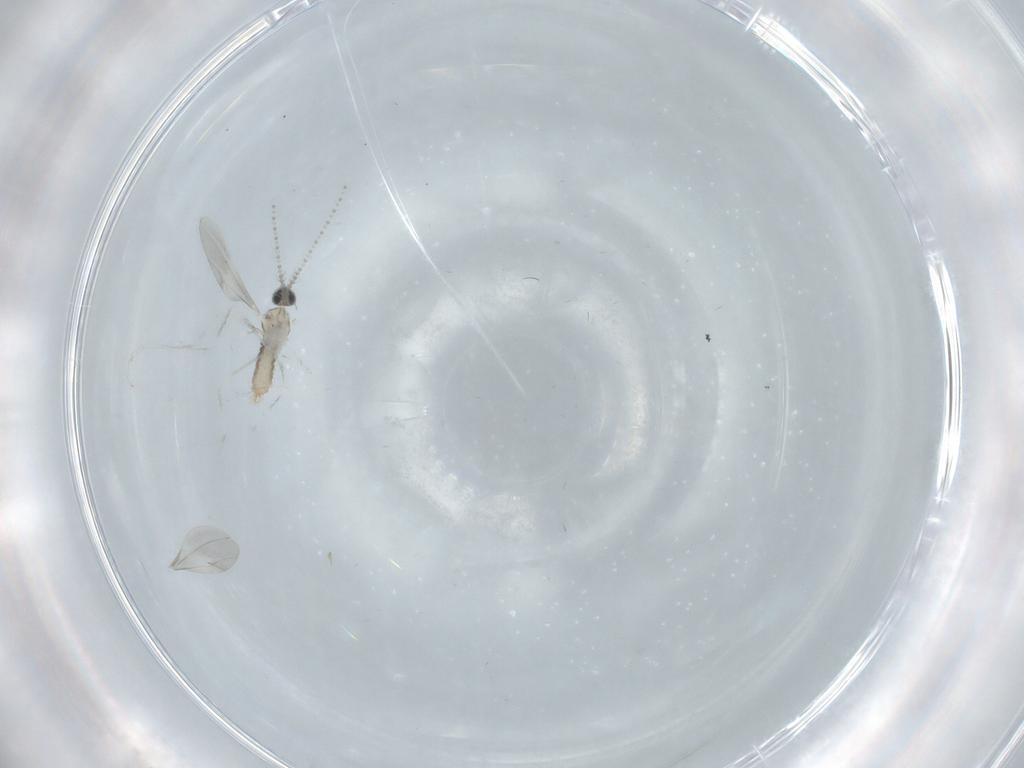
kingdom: Animalia
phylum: Arthropoda
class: Insecta
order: Diptera
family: Cecidomyiidae
